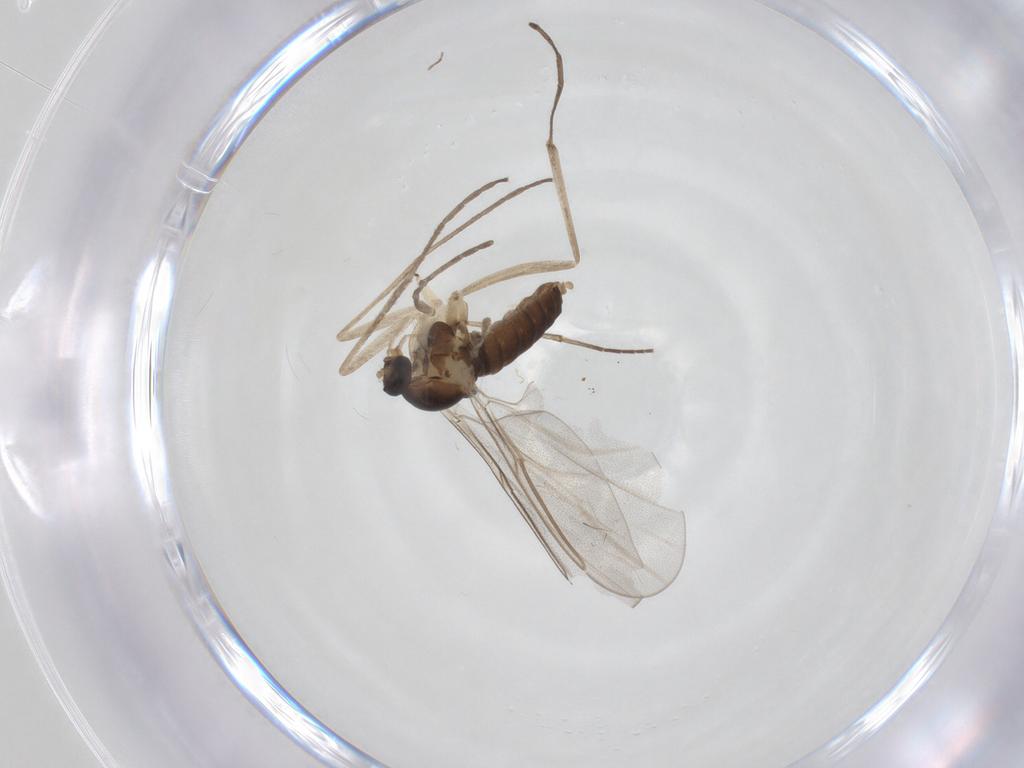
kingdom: Animalia
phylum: Arthropoda
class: Insecta
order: Diptera
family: Cecidomyiidae
